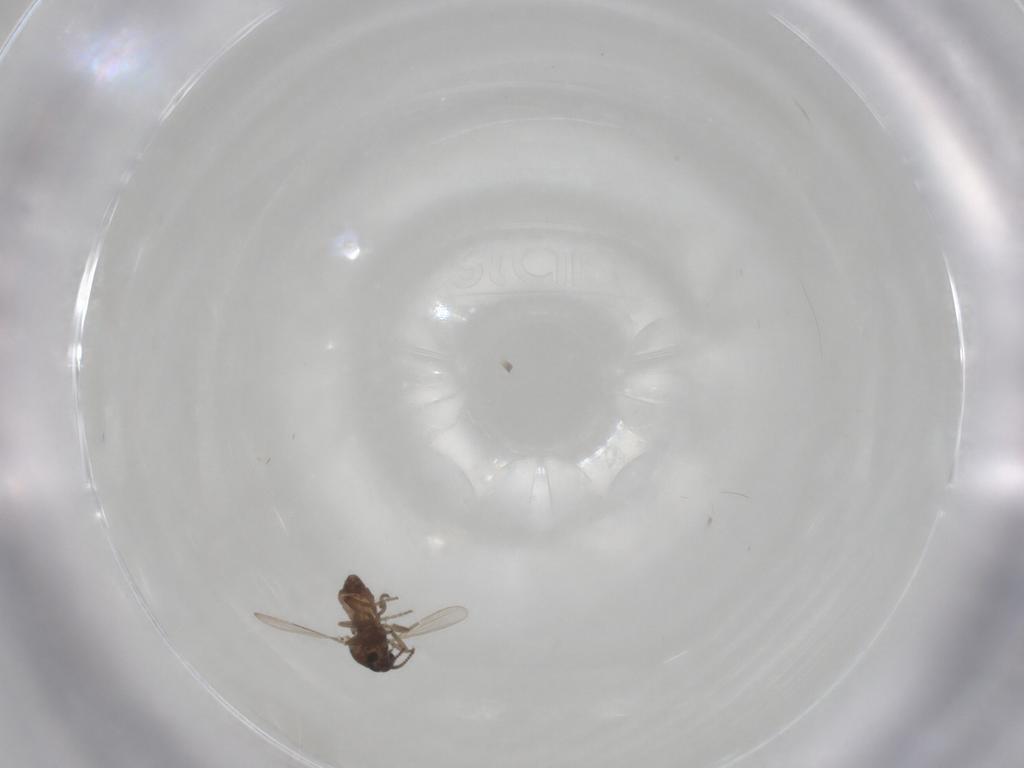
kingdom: Animalia
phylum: Arthropoda
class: Insecta
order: Diptera
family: Ceratopogonidae
